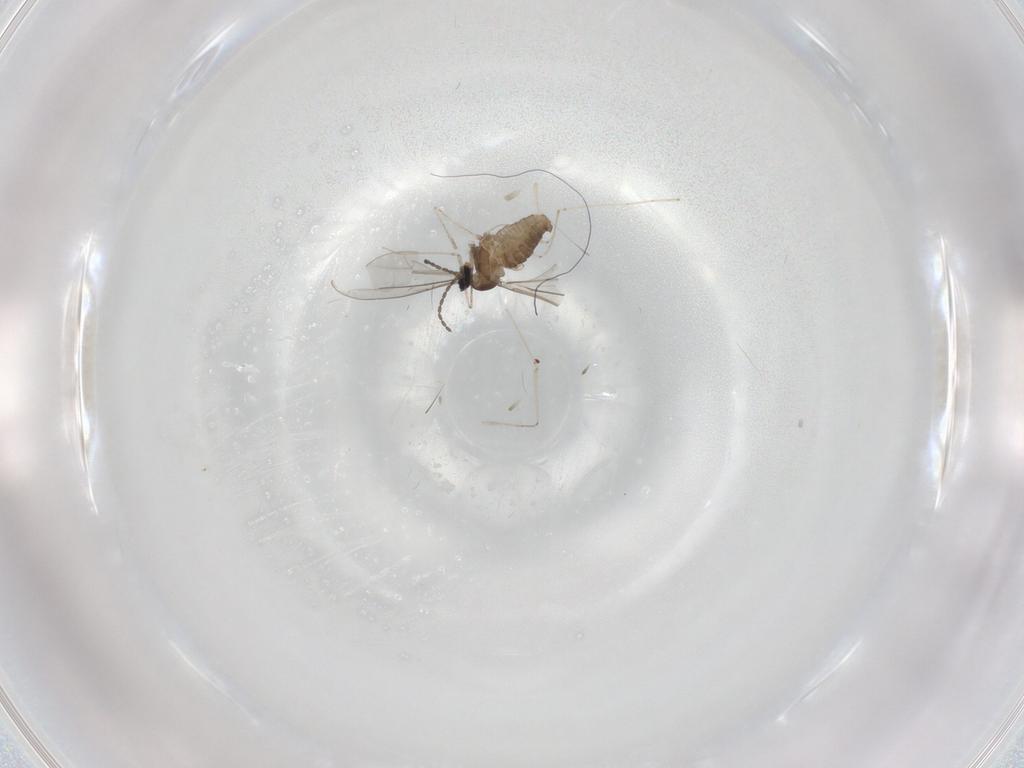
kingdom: Animalia
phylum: Arthropoda
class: Insecta
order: Diptera
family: Cecidomyiidae
